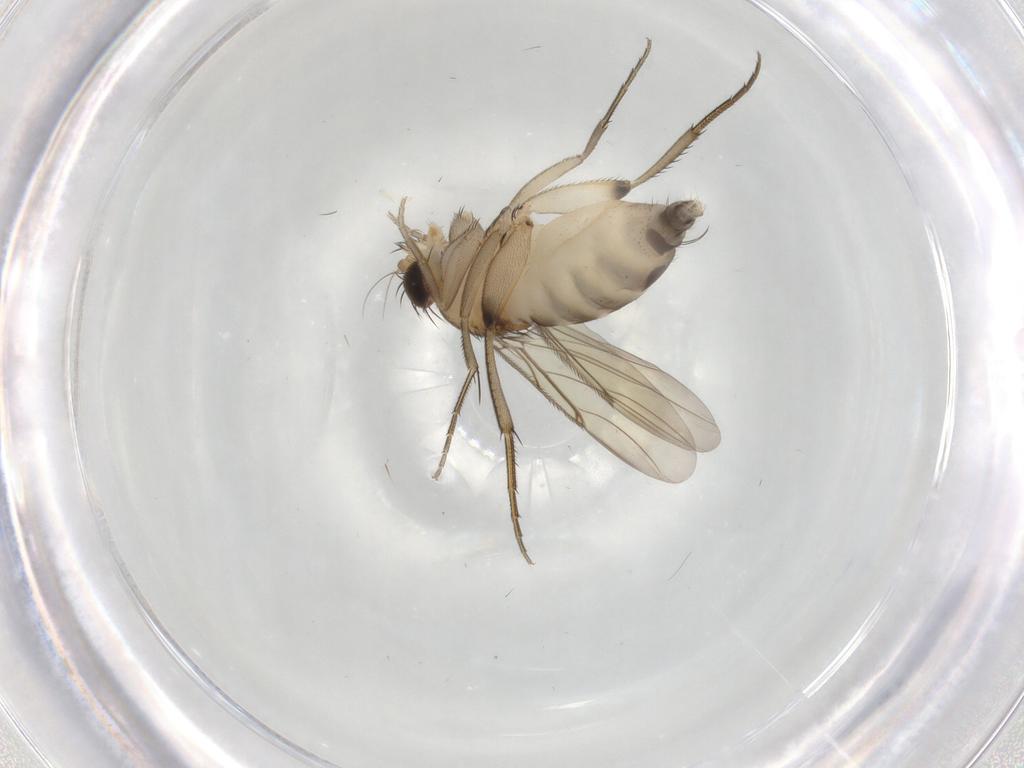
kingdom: Animalia
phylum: Arthropoda
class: Insecta
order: Diptera
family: Phoridae
